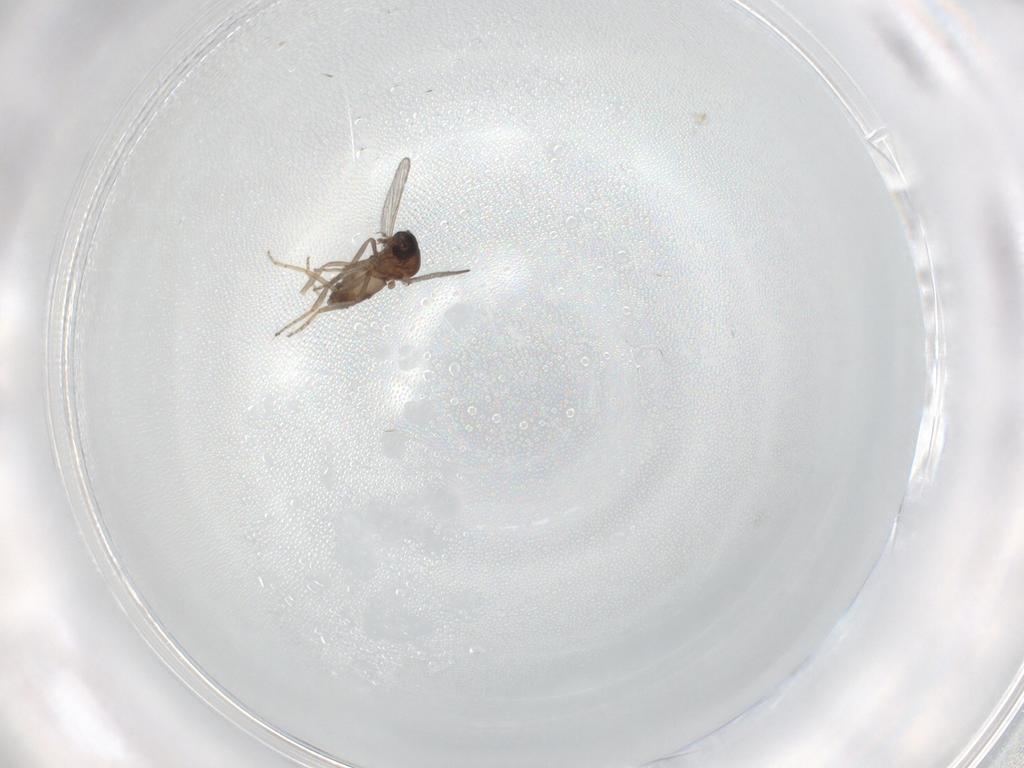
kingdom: Animalia
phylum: Arthropoda
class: Insecta
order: Diptera
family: Ceratopogonidae
